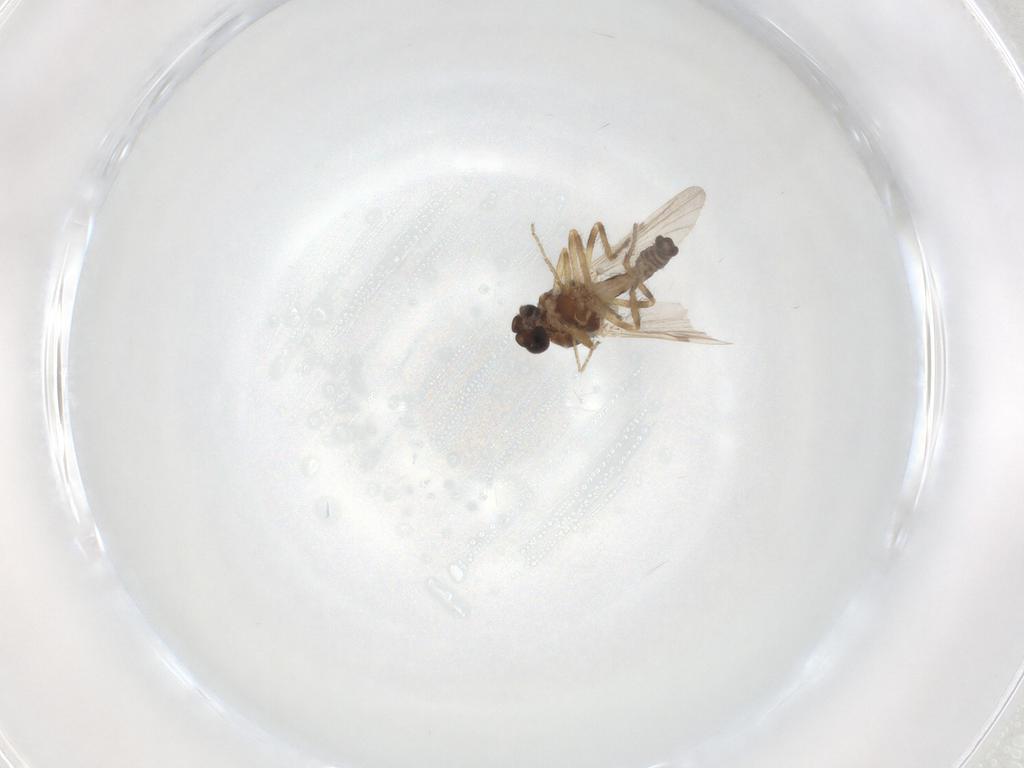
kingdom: Animalia
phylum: Arthropoda
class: Insecta
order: Diptera
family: Ceratopogonidae
